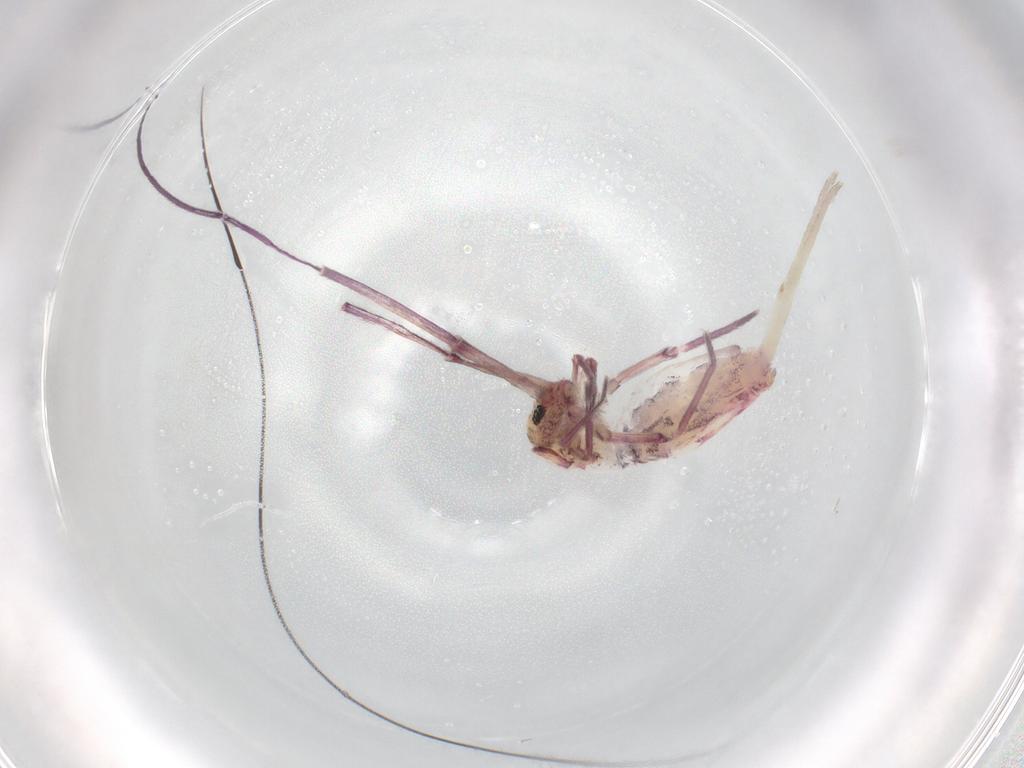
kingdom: Animalia
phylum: Arthropoda
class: Collembola
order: Entomobryomorpha
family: Entomobryidae
